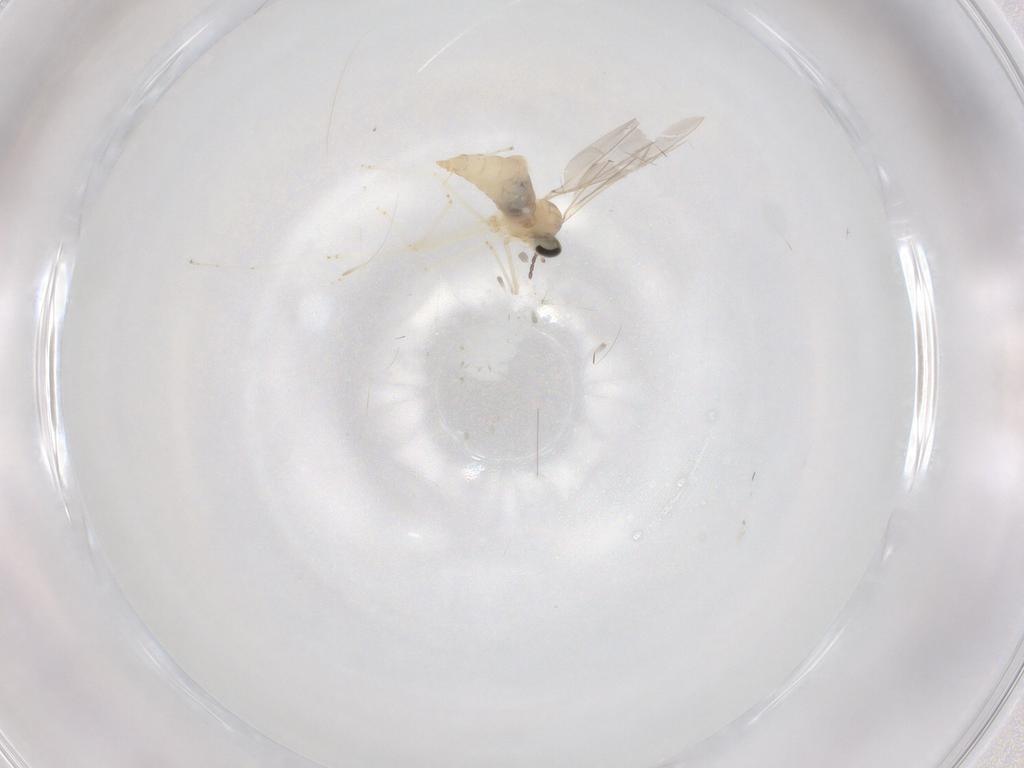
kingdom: Animalia
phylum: Arthropoda
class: Insecta
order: Diptera
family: Cecidomyiidae
